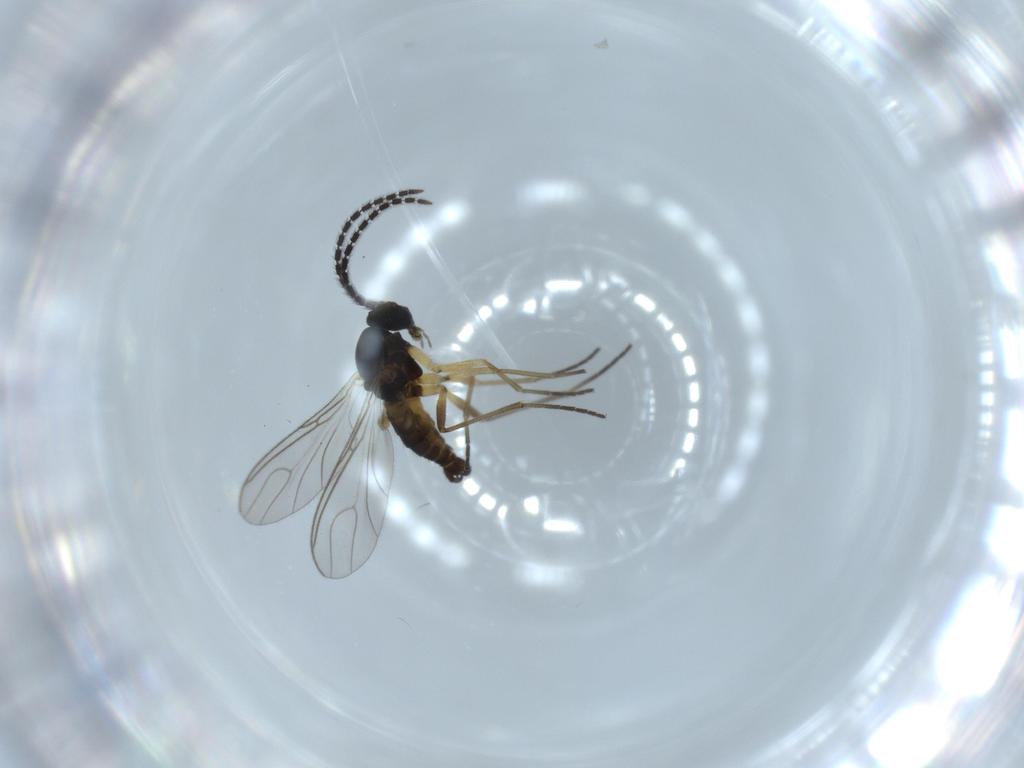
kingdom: Animalia
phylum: Arthropoda
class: Insecta
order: Diptera
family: Sciaridae
